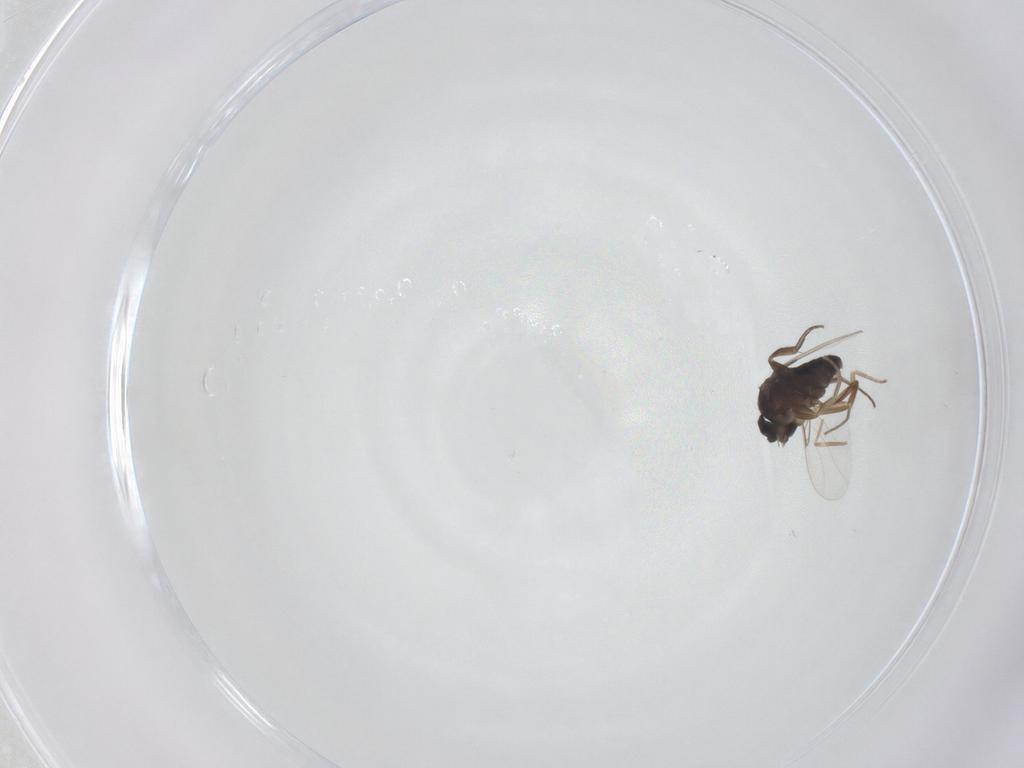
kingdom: Animalia
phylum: Arthropoda
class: Insecta
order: Diptera
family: Phoridae
